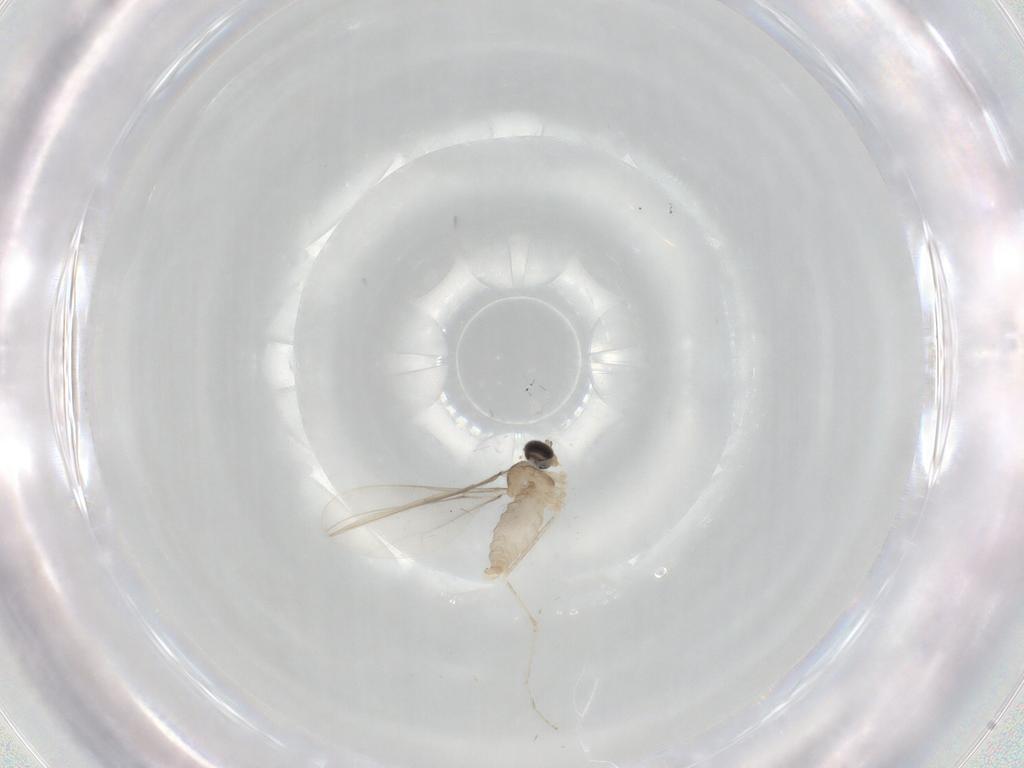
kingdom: Animalia
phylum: Arthropoda
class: Insecta
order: Diptera
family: Cecidomyiidae
